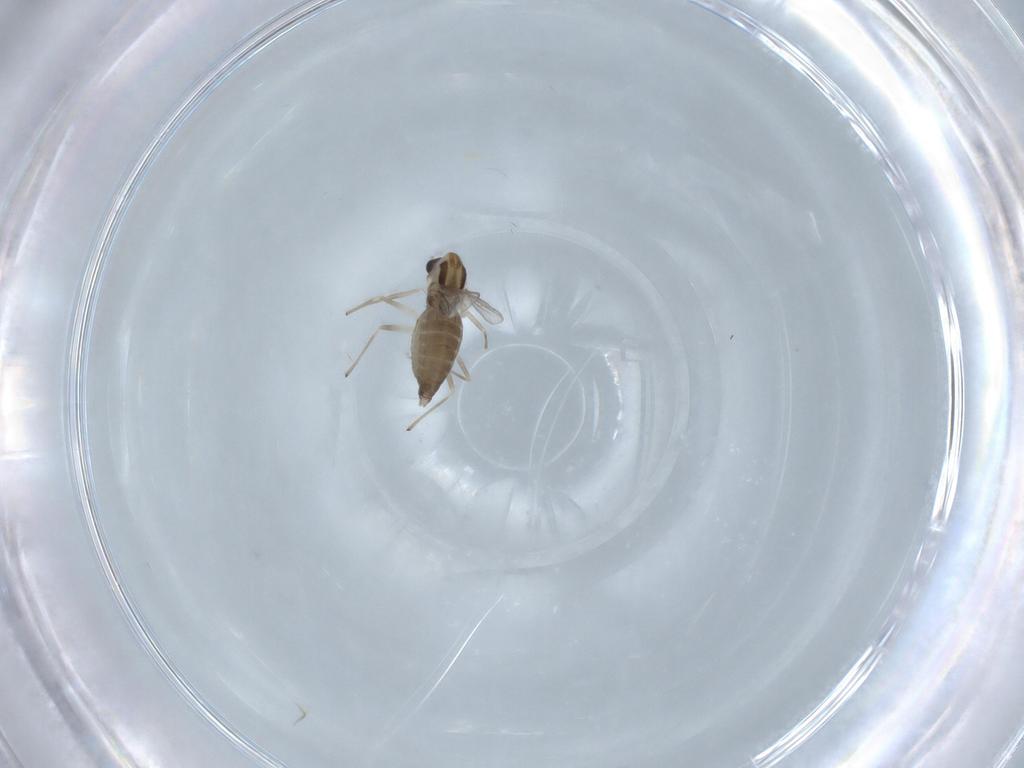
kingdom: Animalia
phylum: Arthropoda
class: Insecta
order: Diptera
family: Chironomidae
